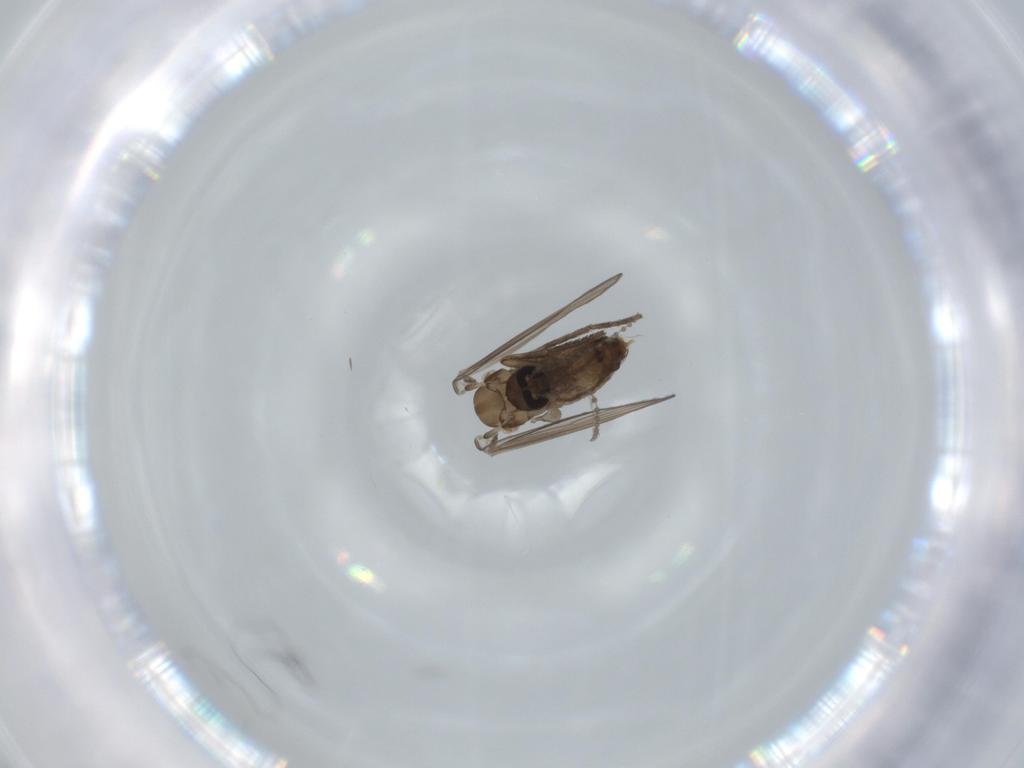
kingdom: Animalia
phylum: Arthropoda
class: Insecta
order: Diptera
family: Psychodidae
